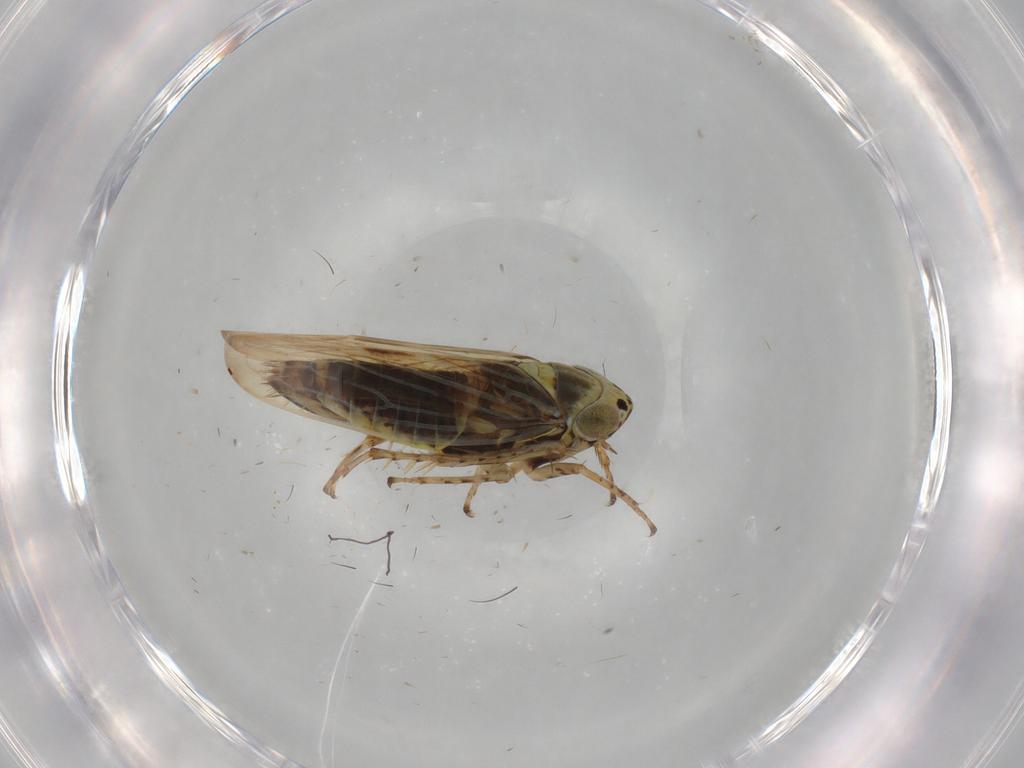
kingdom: Animalia
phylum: Arthropoda
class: Insecta
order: Hemiptera
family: Cicadellidae
